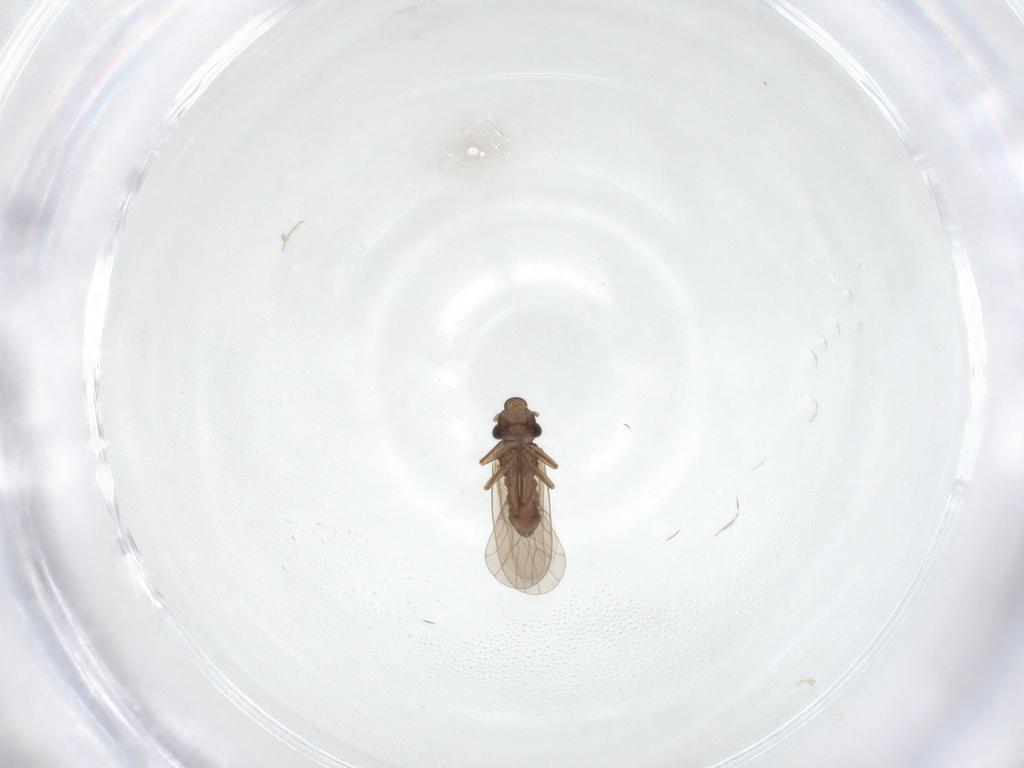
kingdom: Animalia
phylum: Arthropoda
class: Insecta
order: Psocodea
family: Lepidopsocidae
